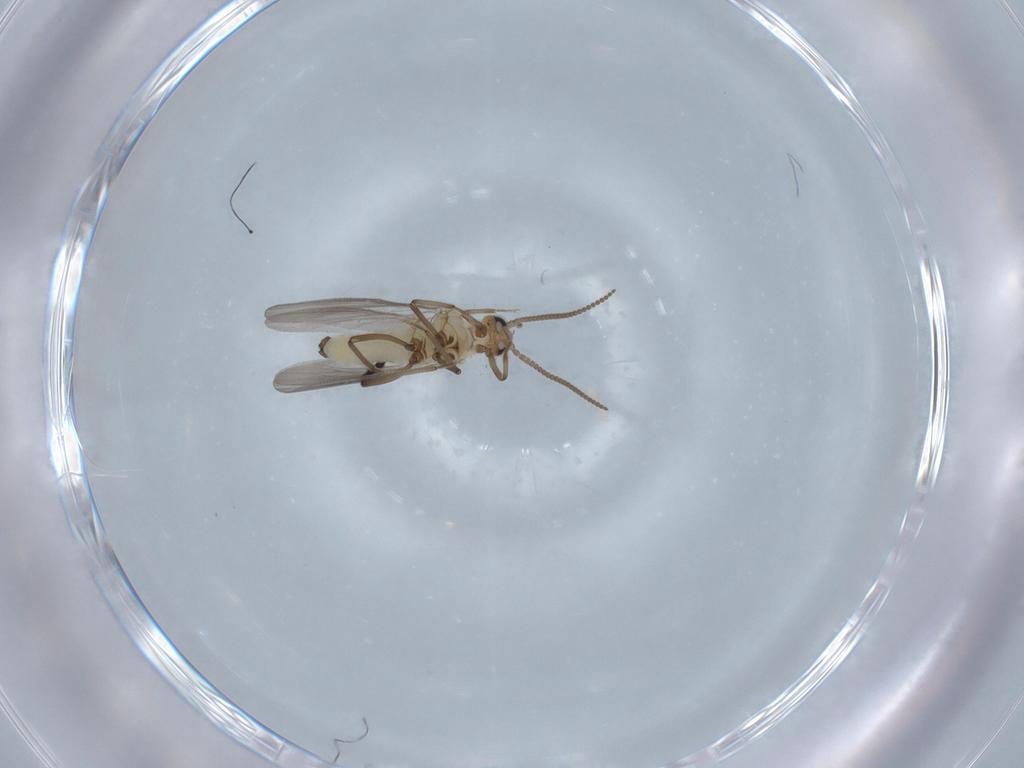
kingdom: Animalia
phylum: Arthropoda
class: Insecta
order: Neuroptera
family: Coniopterygidae
